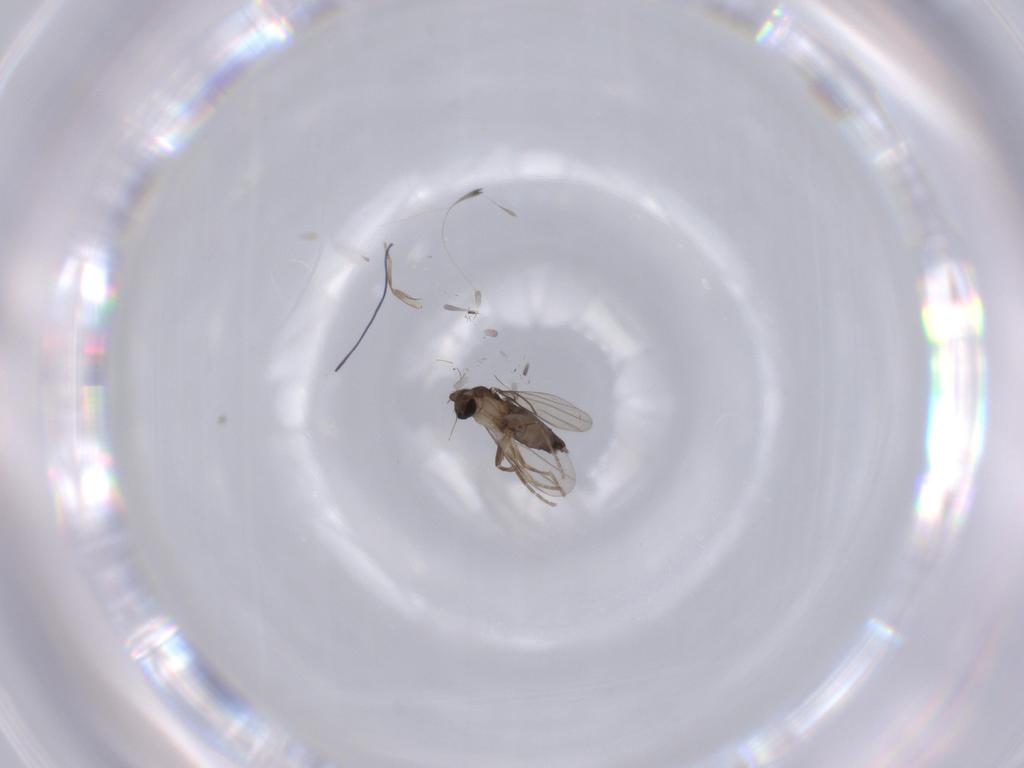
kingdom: Animalia
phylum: Arthropoda
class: Insecta
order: Diptera
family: Phoridae
